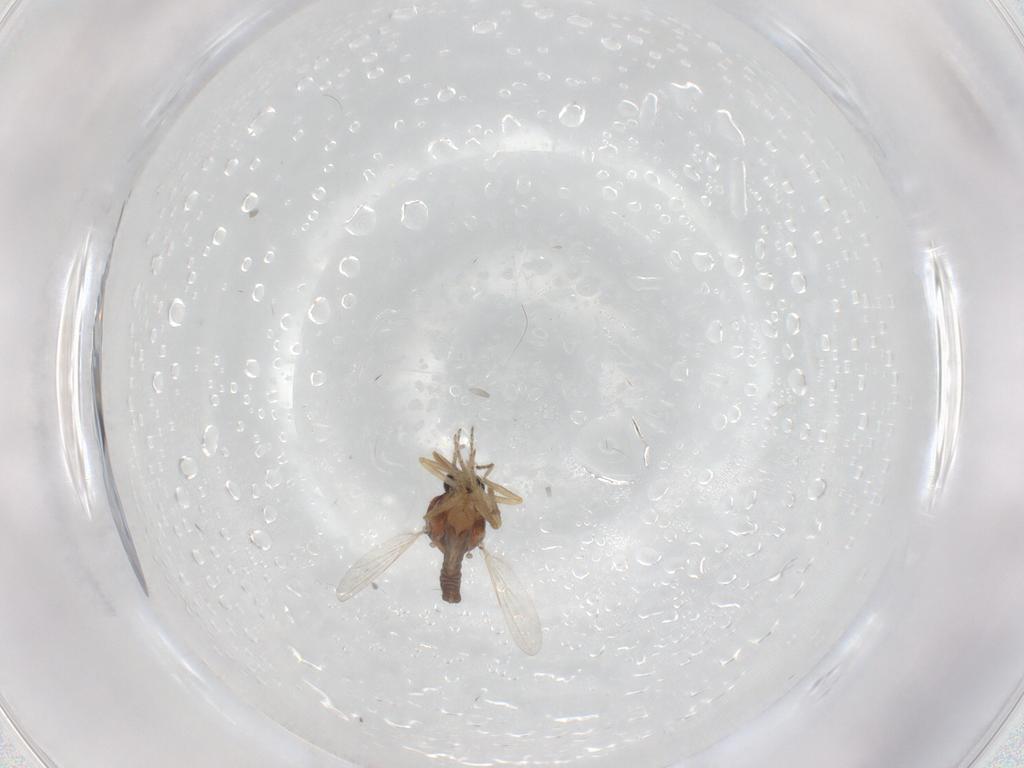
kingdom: Animalia
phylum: Arthropoda
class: Insecta
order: Diptera
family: Ceratopogonidae
